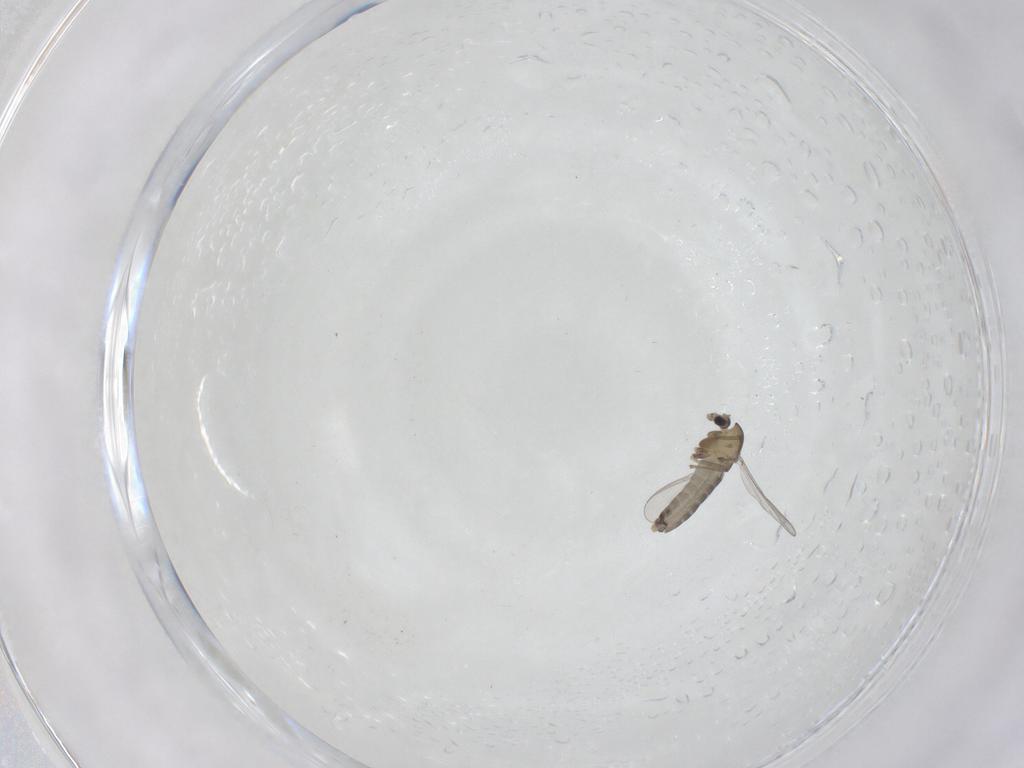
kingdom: Animalia
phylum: Arthropoda
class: Insecta
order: Diptera
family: Chironomidae
